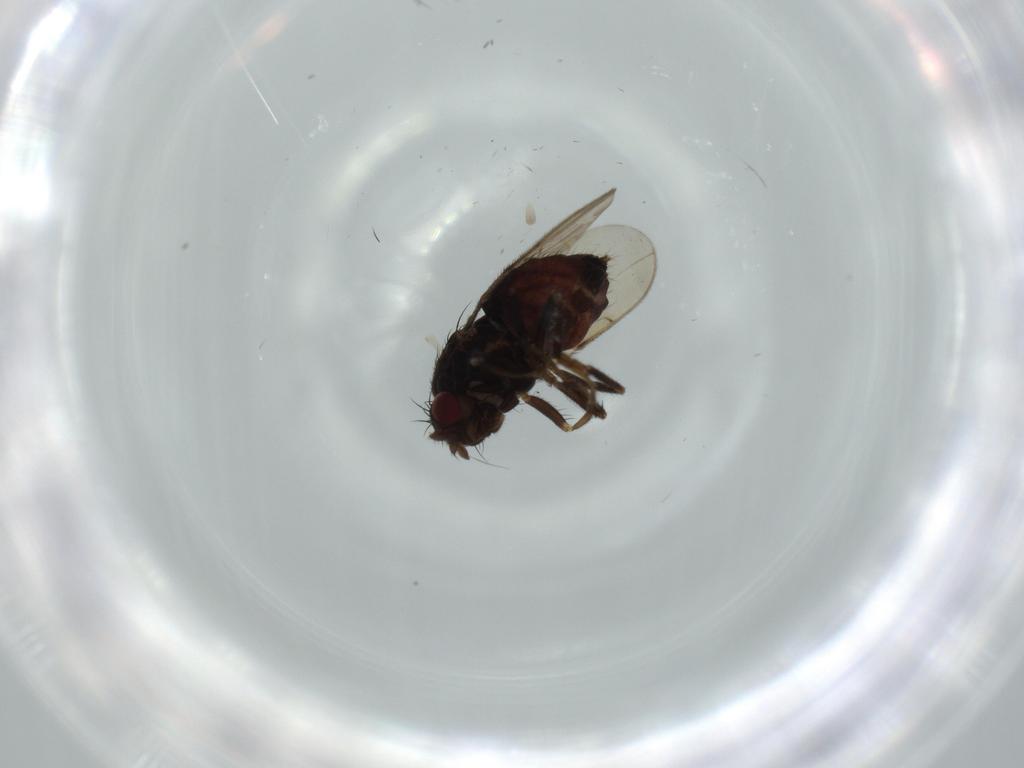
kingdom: Animalia
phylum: Arthropoda
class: Insecta
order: Diptera
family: Sphaeroceridae
